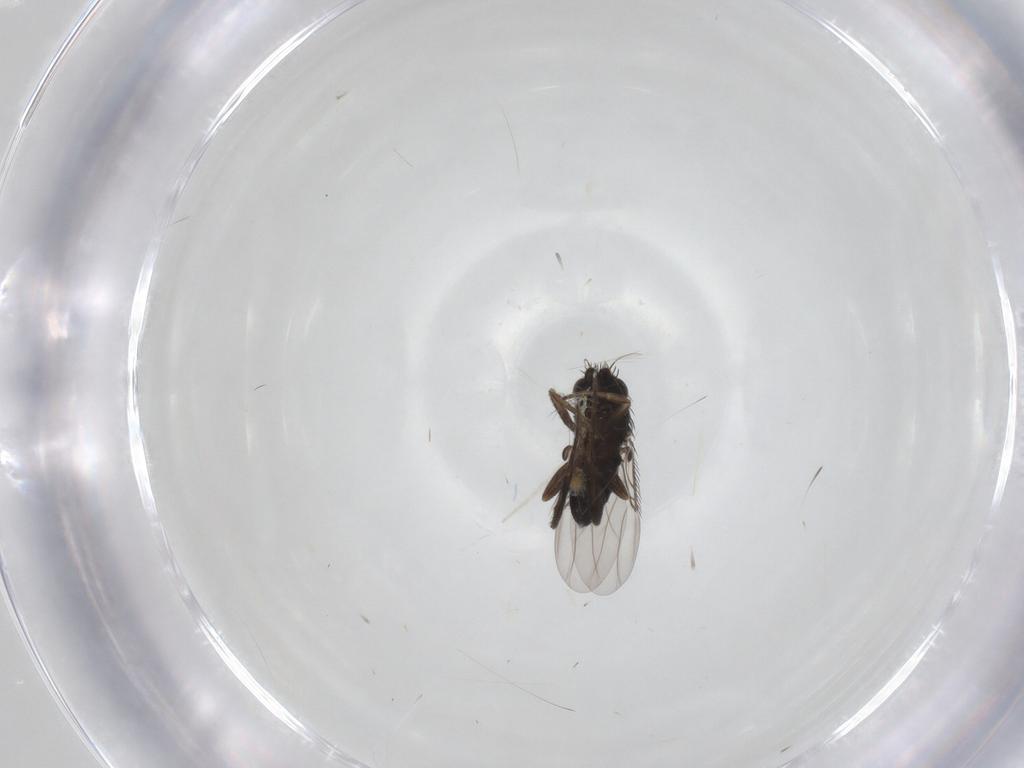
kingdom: Animalia
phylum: Arthropoda
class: Insecta
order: Diptera
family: Phoridae
